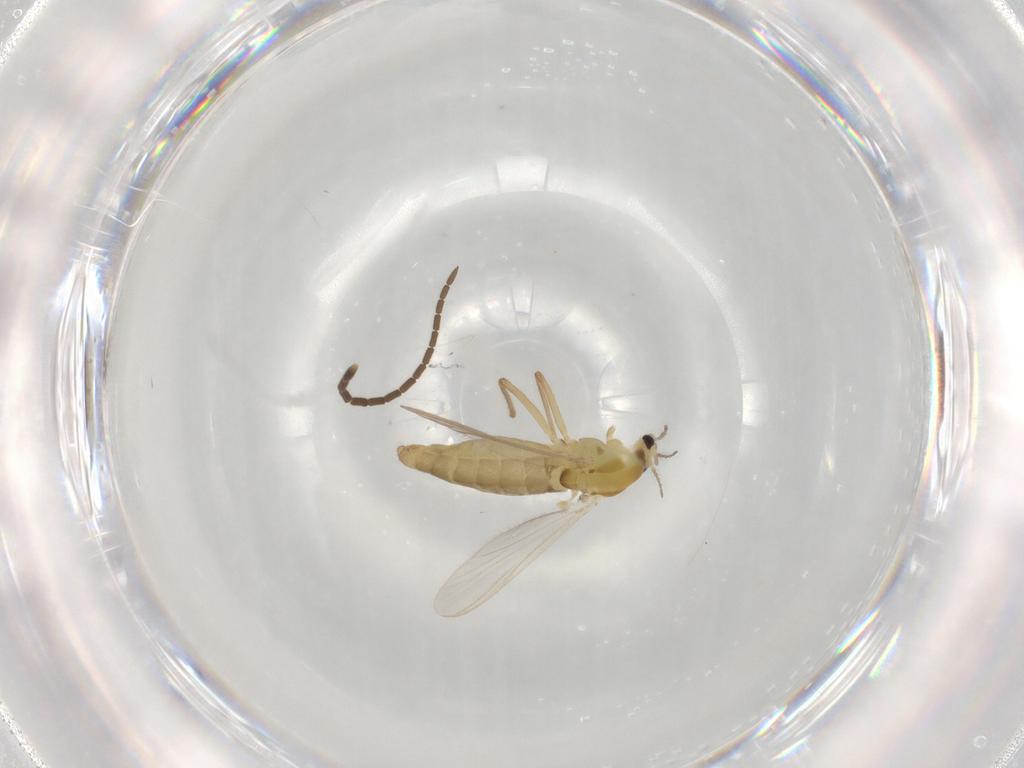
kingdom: Animalia
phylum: Arthropoda
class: Insecta
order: Diptera
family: Chironomidae
